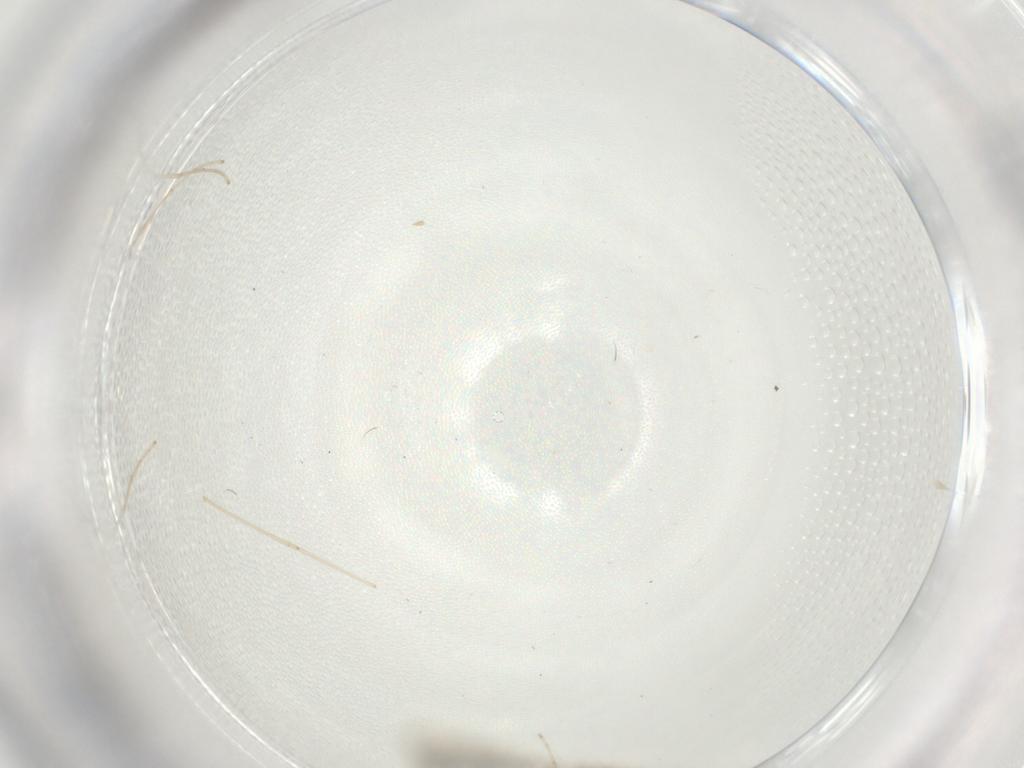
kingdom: Animalia
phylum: Arthropoda
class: Insecta
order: Diptera
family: Cecidomyiidae
